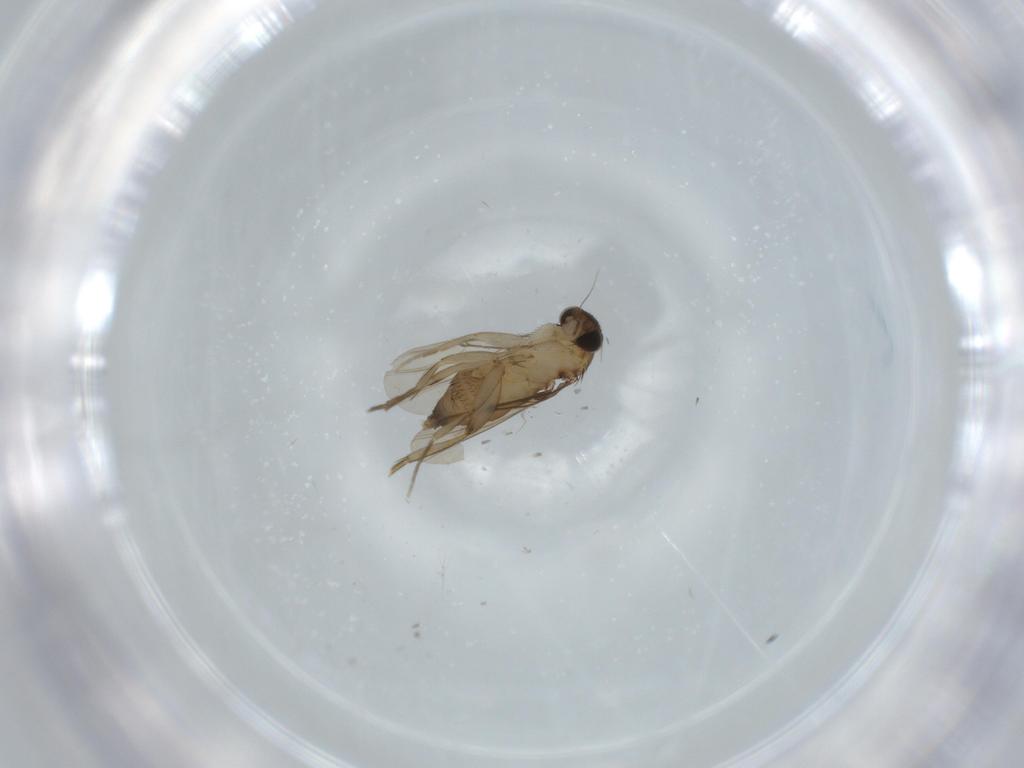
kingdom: Animalia
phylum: Arthropoda
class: Insecta
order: Diptera
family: Phoridae
